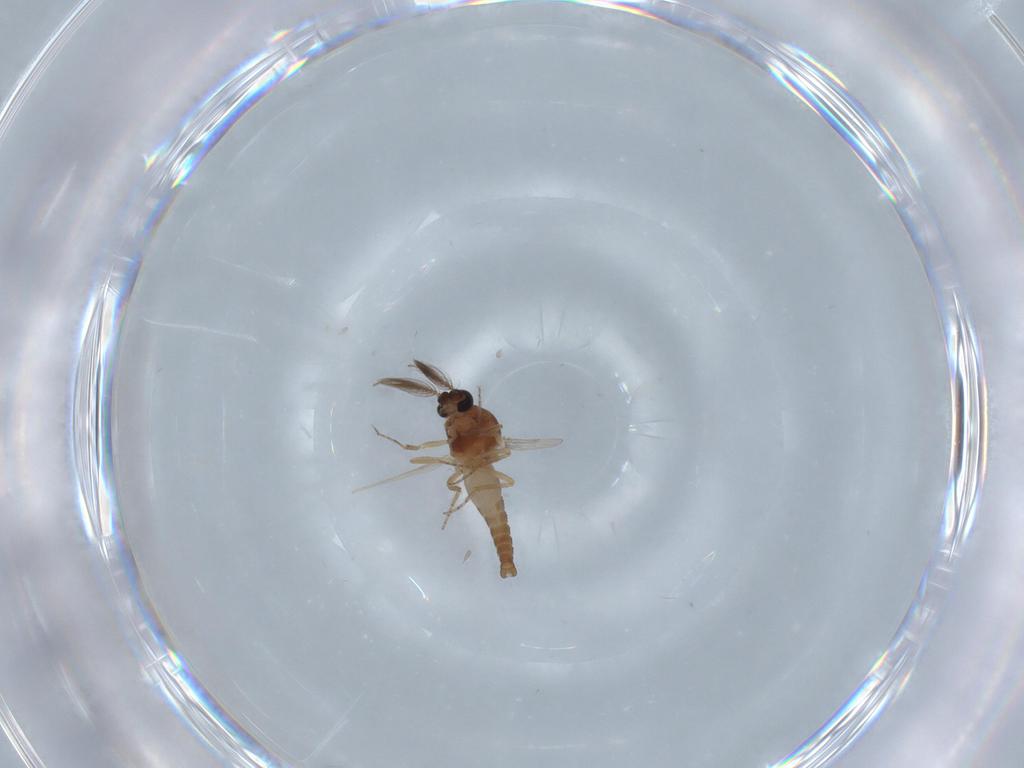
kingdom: Animalia
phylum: Arthropoda
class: Insecta
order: Diptera
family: Ceratopogonidae
